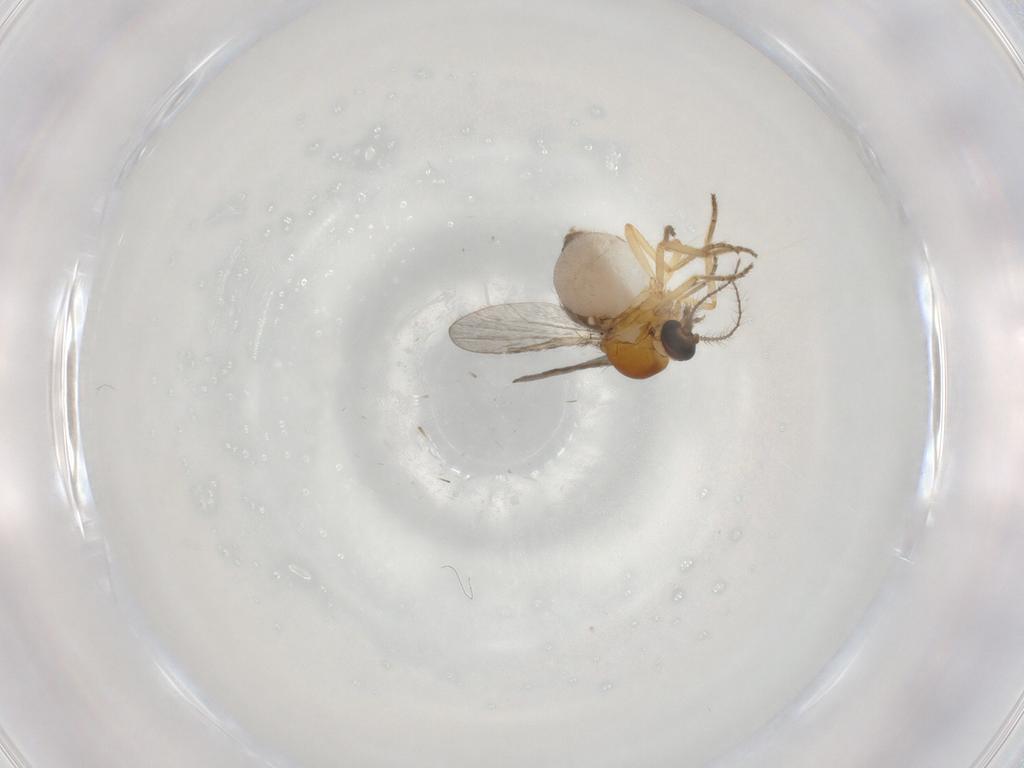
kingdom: Animalia
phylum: Arthropoda
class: Insecta
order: Diptera
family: Ceratopogonidae
